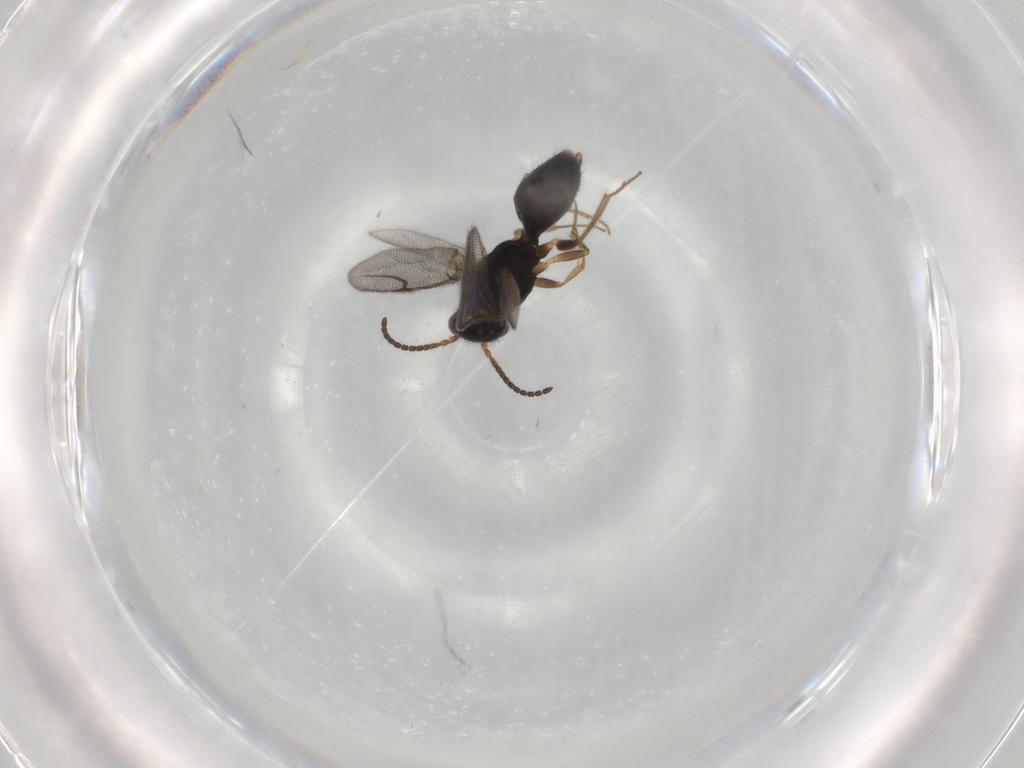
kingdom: Animalia
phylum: Arthropoda
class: Insecta
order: Hymenoptera
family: Bethylidae
